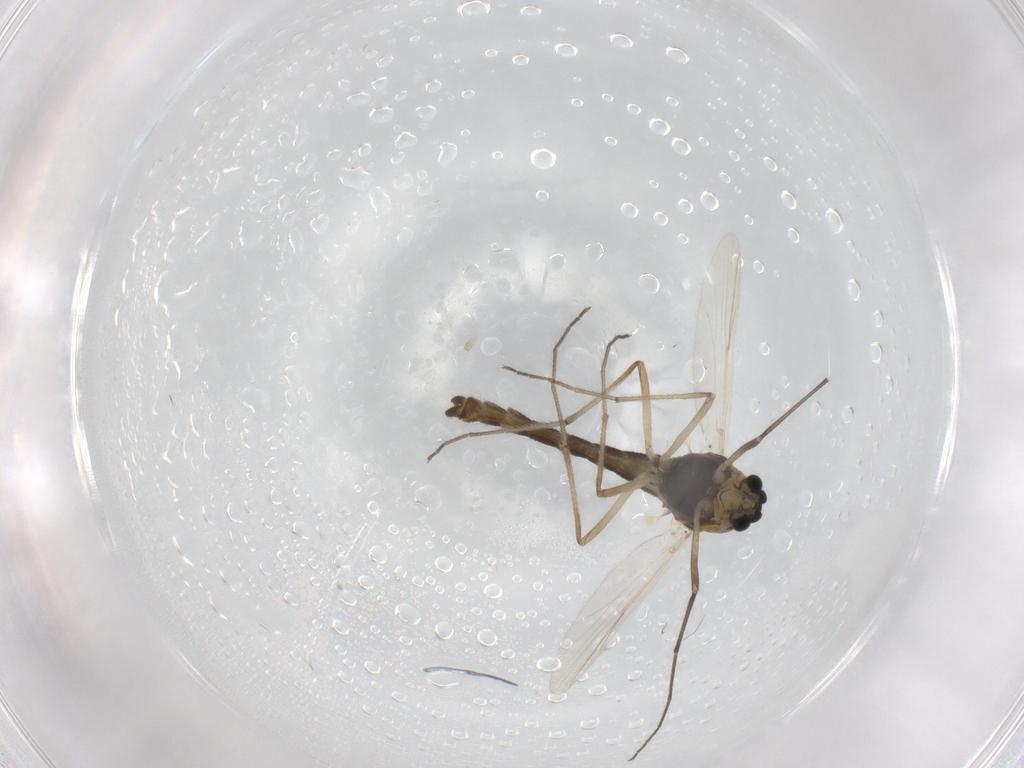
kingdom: Animalia
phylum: Arthropoda
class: Insecta
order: Diptera
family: Chironomidae
